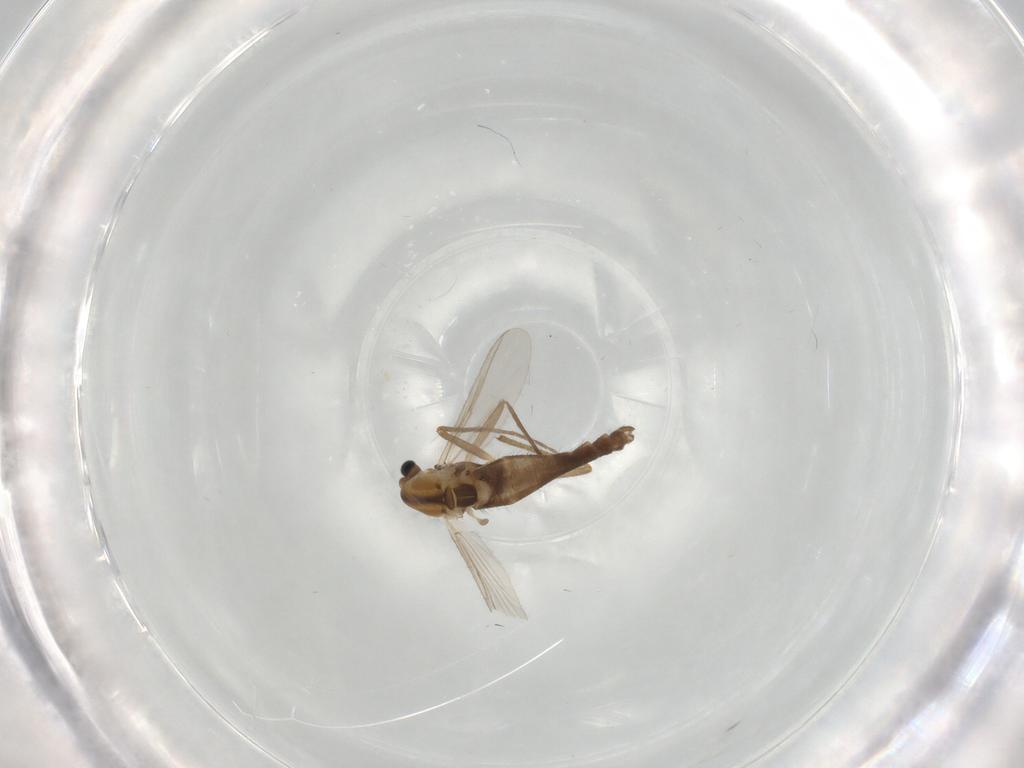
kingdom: Animalia
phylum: Arthropoda
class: Insecta
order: Diptera
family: Chironomidae
